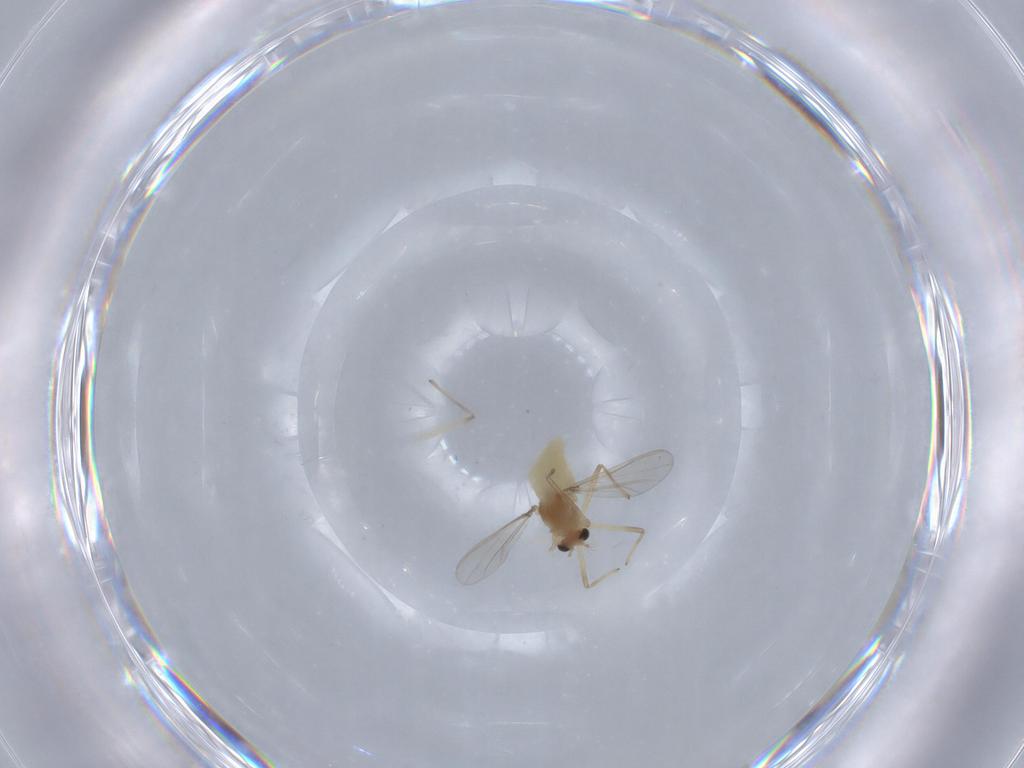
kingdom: Animalia
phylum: Arthropoda
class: Insecta
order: Diptera
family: Chironomidae
